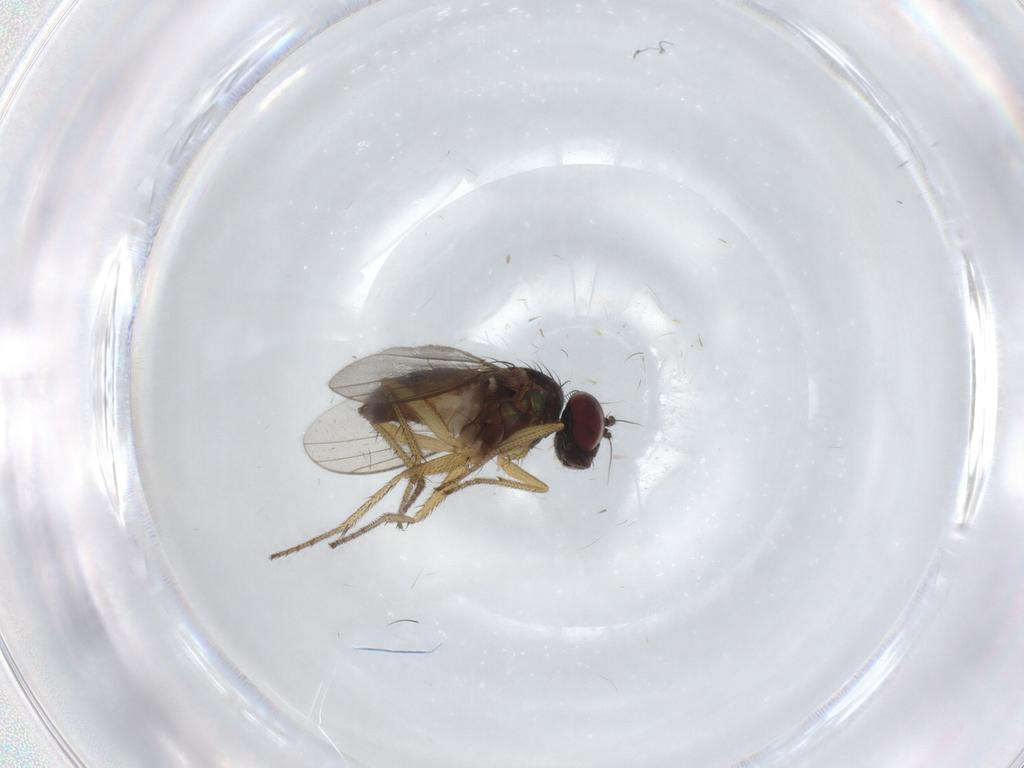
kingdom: Animalia
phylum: Arthropoda
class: Insecta
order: Diptera
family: Dolichopodidae
